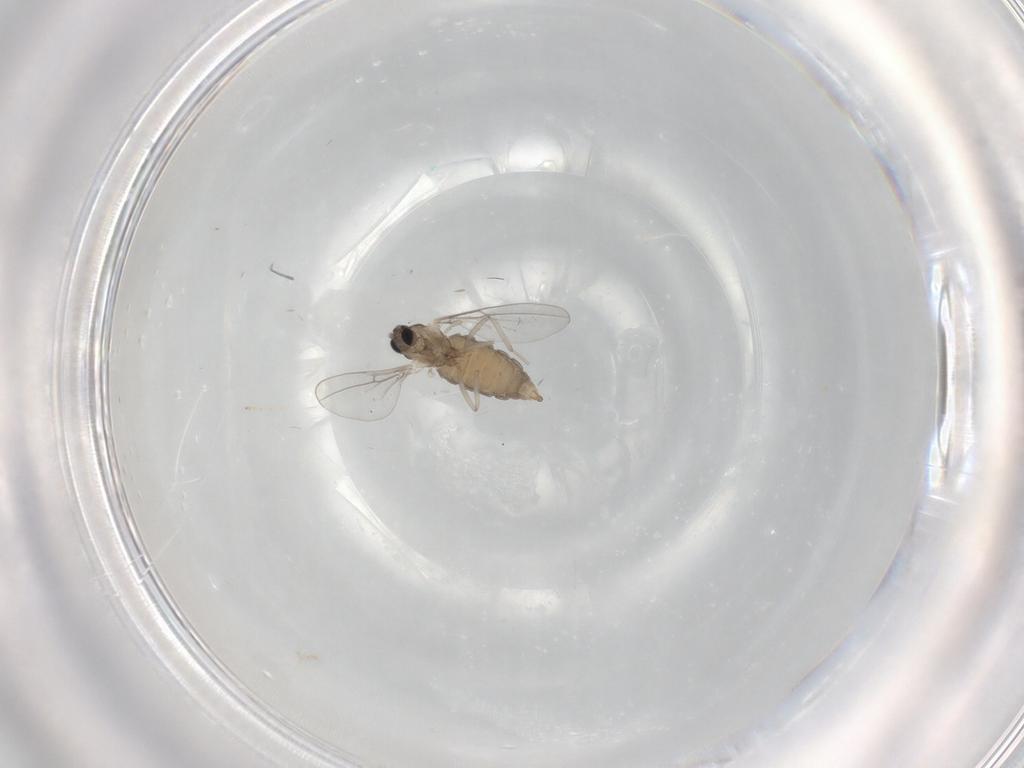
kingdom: Animalia
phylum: Arthropoda
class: Insecta
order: Diptera
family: Cecidomyiidae
